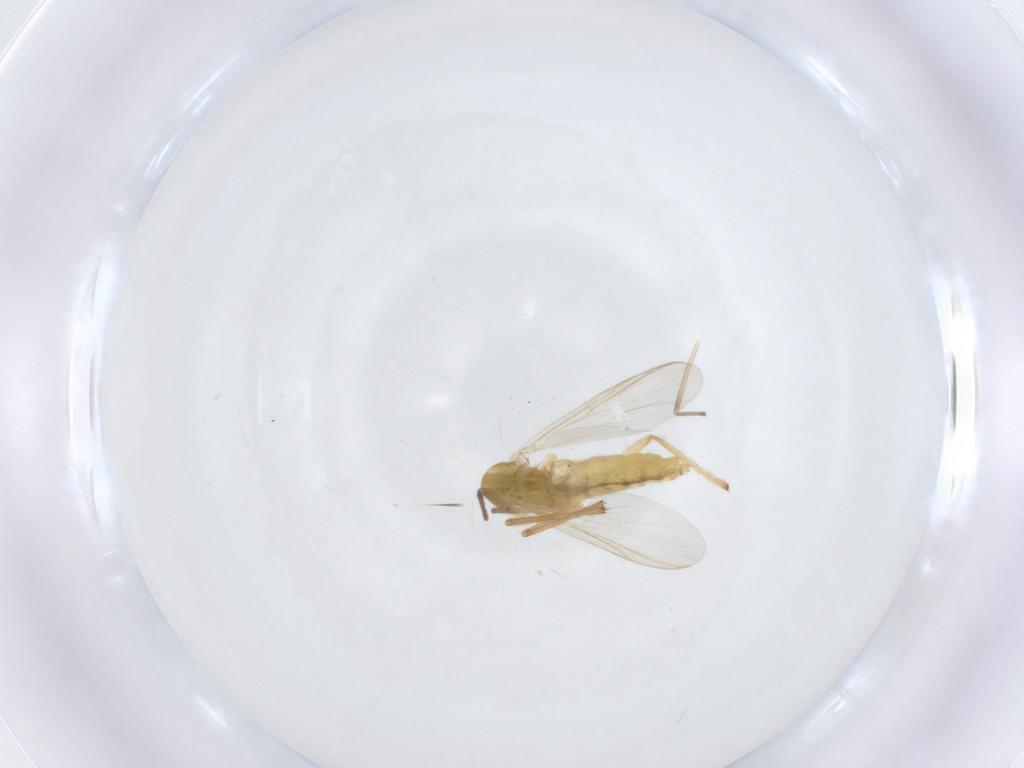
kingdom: Animalia
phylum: Arthropoda
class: Insecta
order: Diptera
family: Chironomidae
